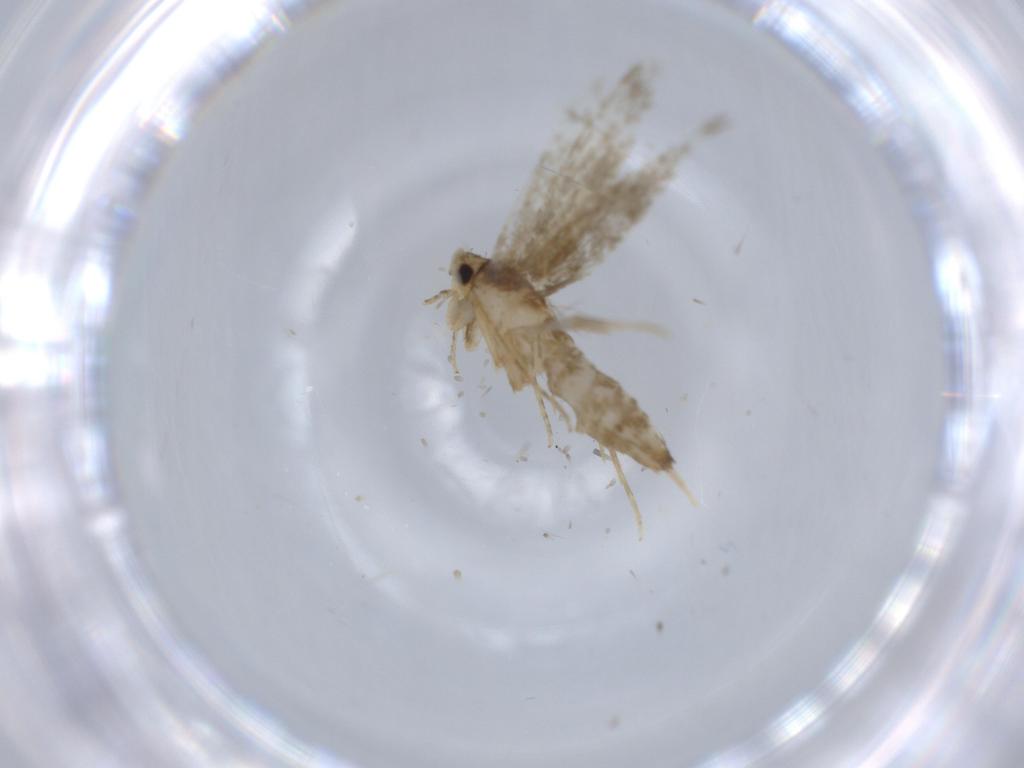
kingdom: Animalia
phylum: Arthropoda
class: Insecta
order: Lepidoptera
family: Tineidae
